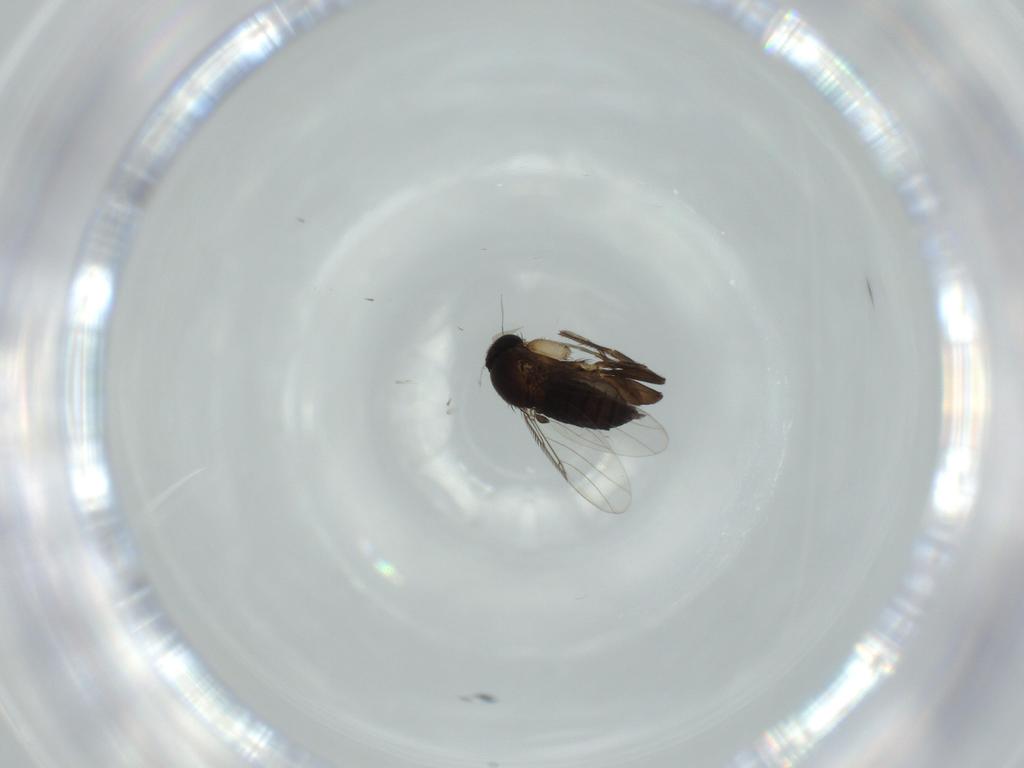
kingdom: Animalia
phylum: Arthropoda
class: Insecta
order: Diptera
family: Phoridae
